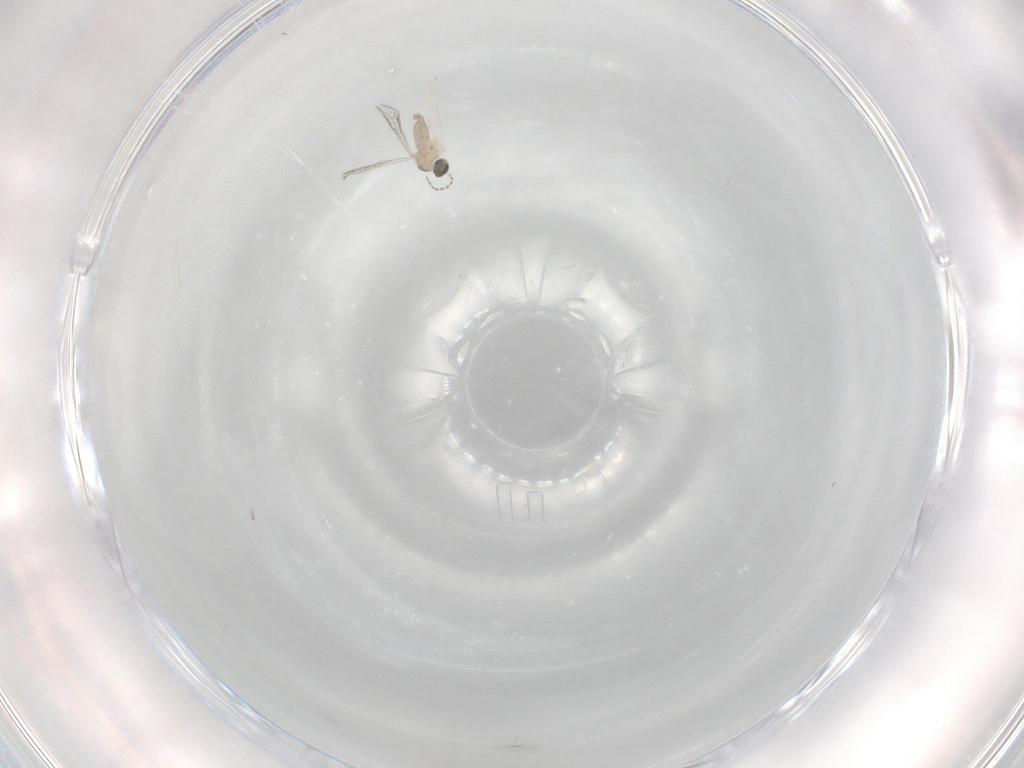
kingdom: Animalia
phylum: Arthropoda
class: Insecta
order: Diptera
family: Cecidomyiidae
